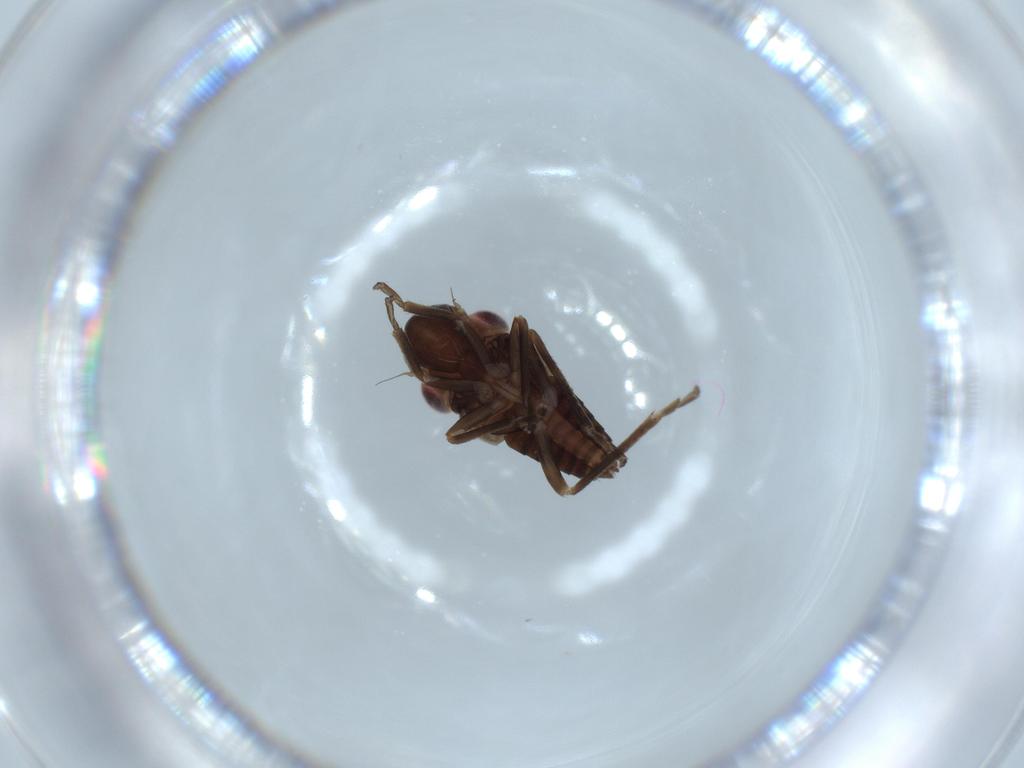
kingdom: Animalia
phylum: Arthropoda
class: Insecta
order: Hemiptera
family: Cicadellidae
